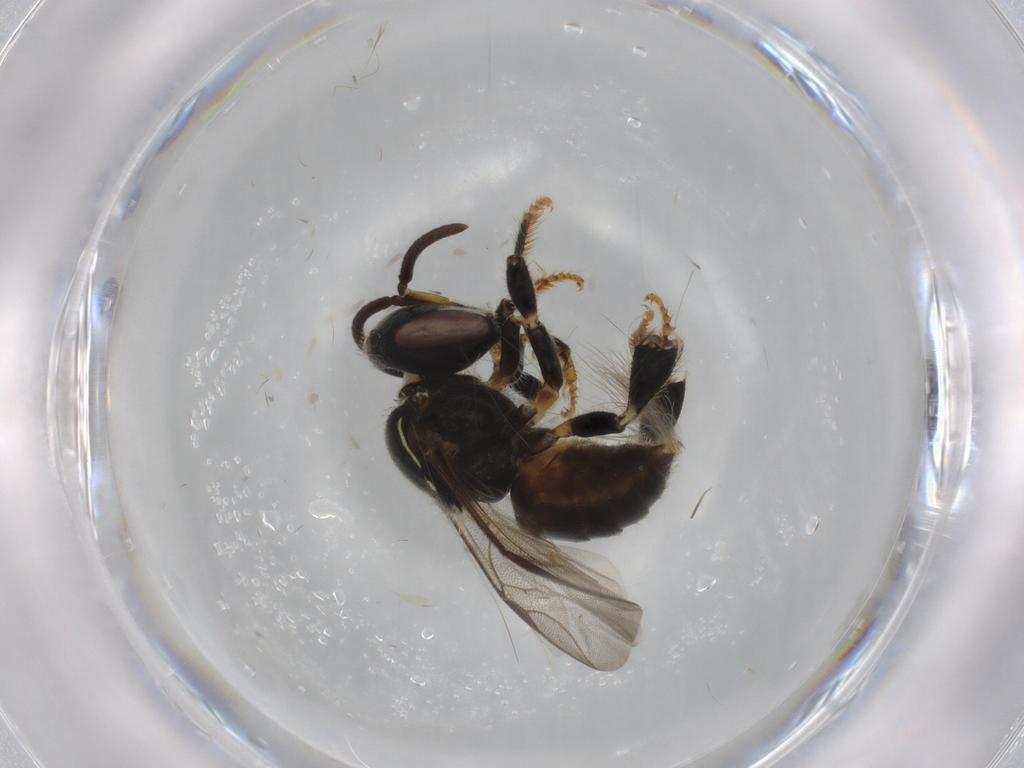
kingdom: Animalia
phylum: Arthropoda
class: Insecta
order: Hymenoptera
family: Apidae
